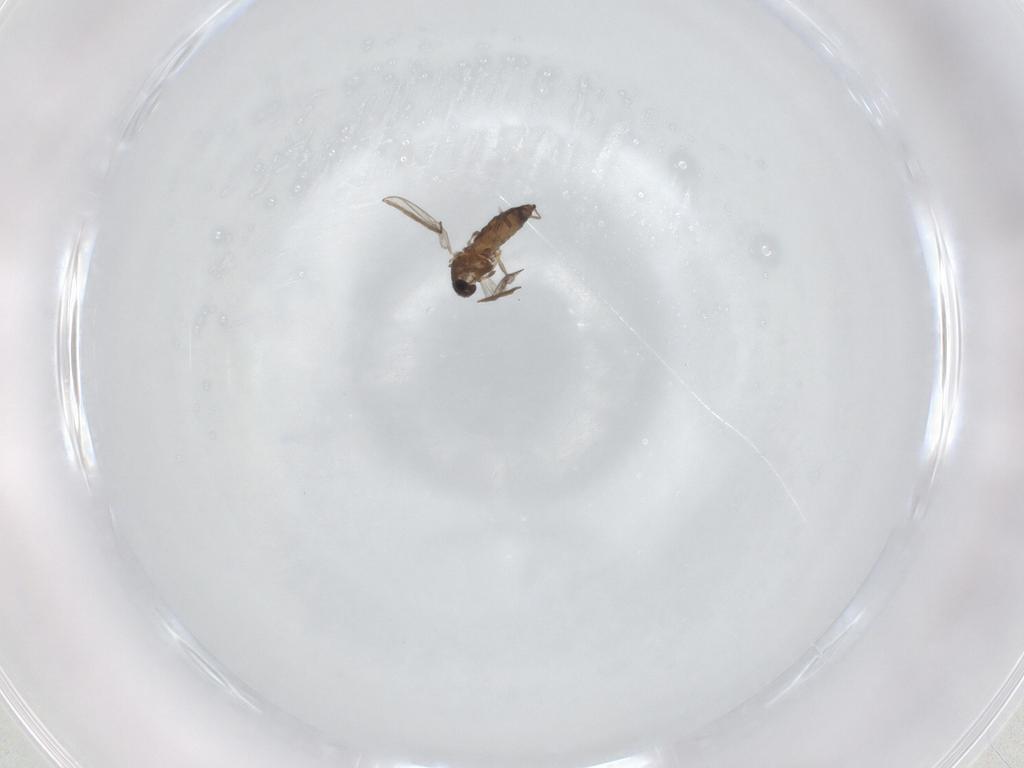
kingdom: Animalia
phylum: Arthropoda
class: Insecta
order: Diptera
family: Chironomidae
